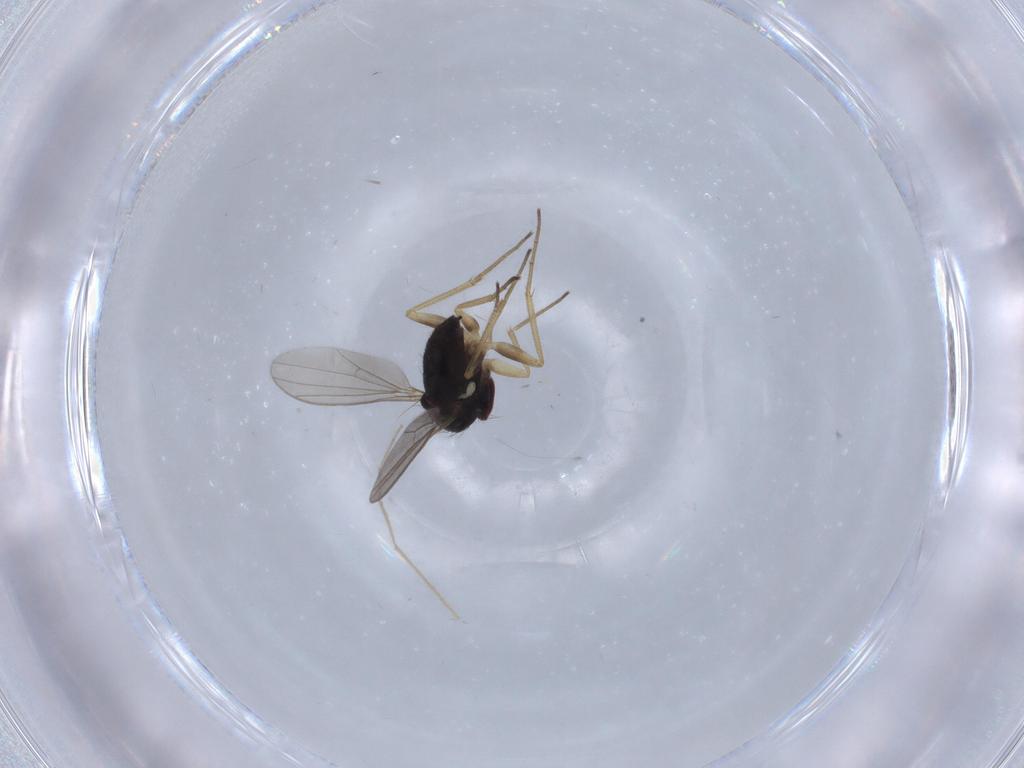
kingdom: Animalia
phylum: Arthropoda
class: Insecta
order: Diptera
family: Dolichopodidae
